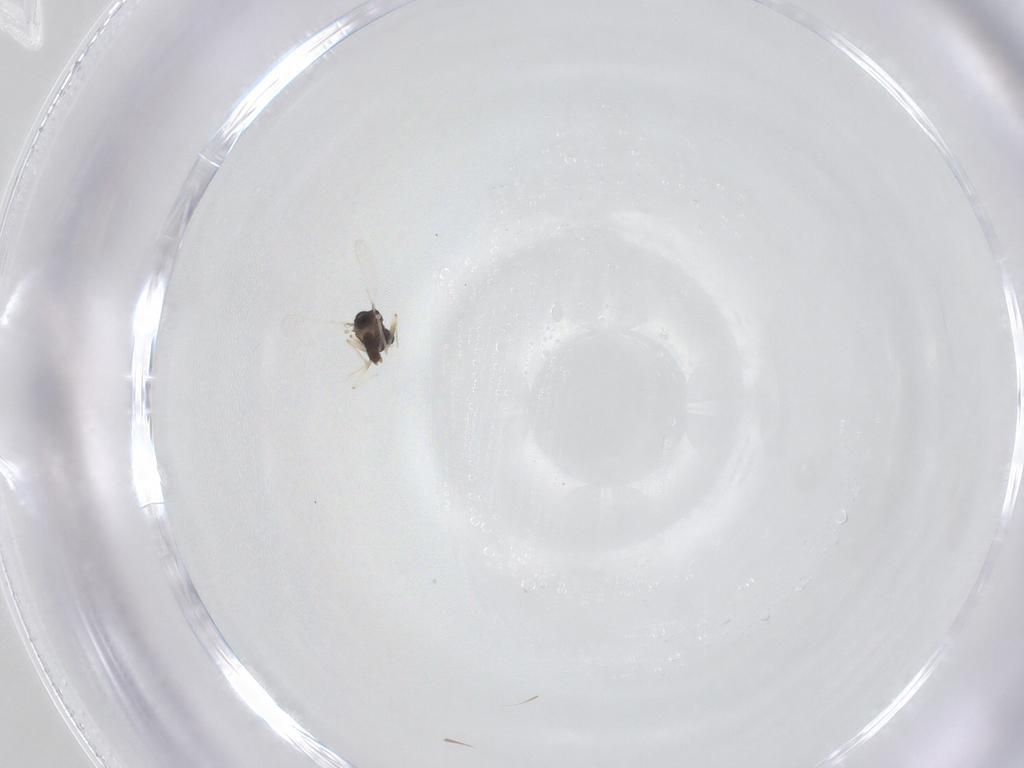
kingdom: Animalia
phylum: Arthropoda
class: Insecta
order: Diptera
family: Chironomidae
